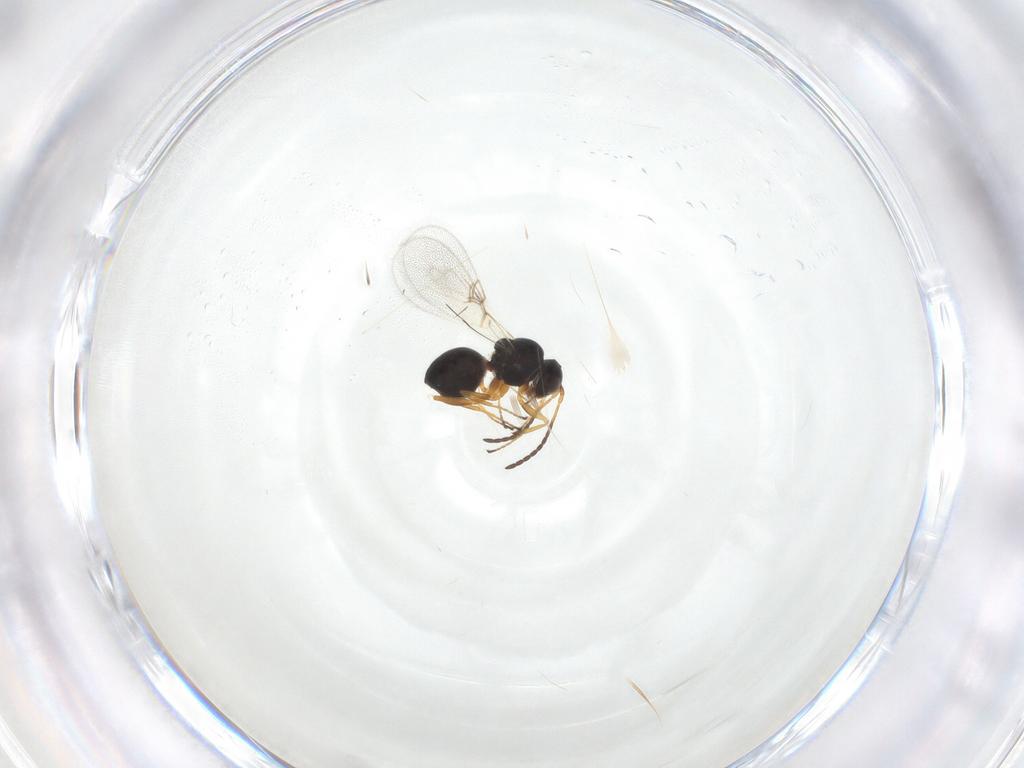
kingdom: Animalia
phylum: Arthropoda
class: Insecta
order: Hymenoptera
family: Figitidae
